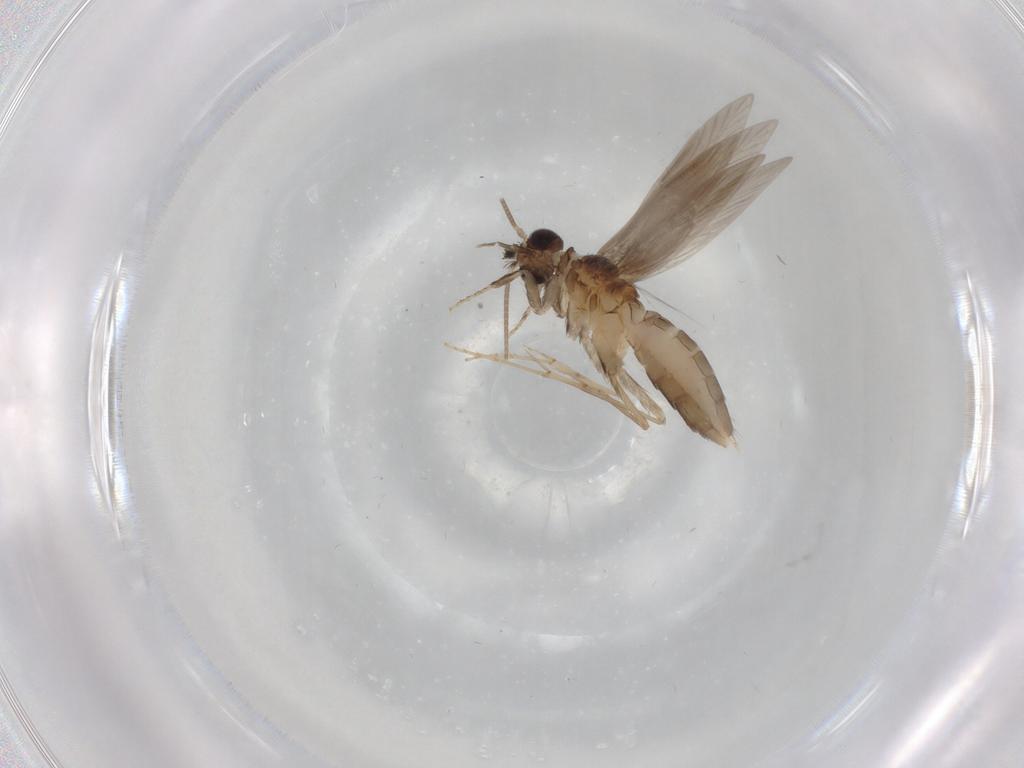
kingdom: Animalia
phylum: Arthropoda
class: Insecta
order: Trichoptera
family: Hydroptilidae
